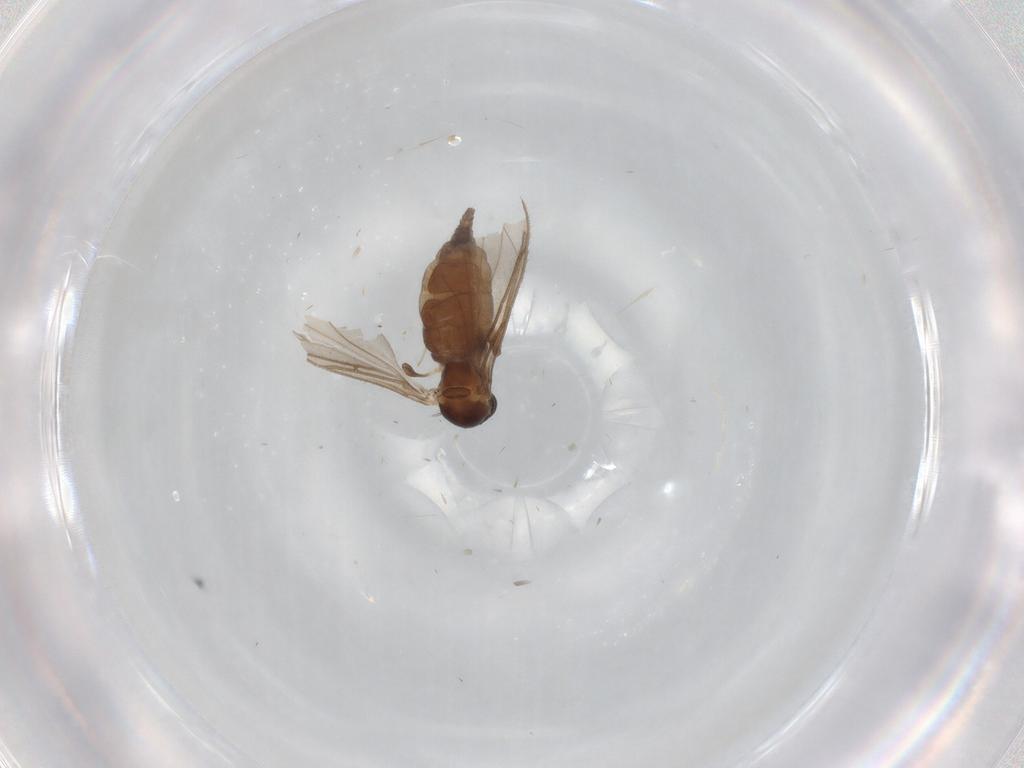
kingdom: Animalia
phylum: Arthropoda
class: Insecta
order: Diptera
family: Sciaridae
